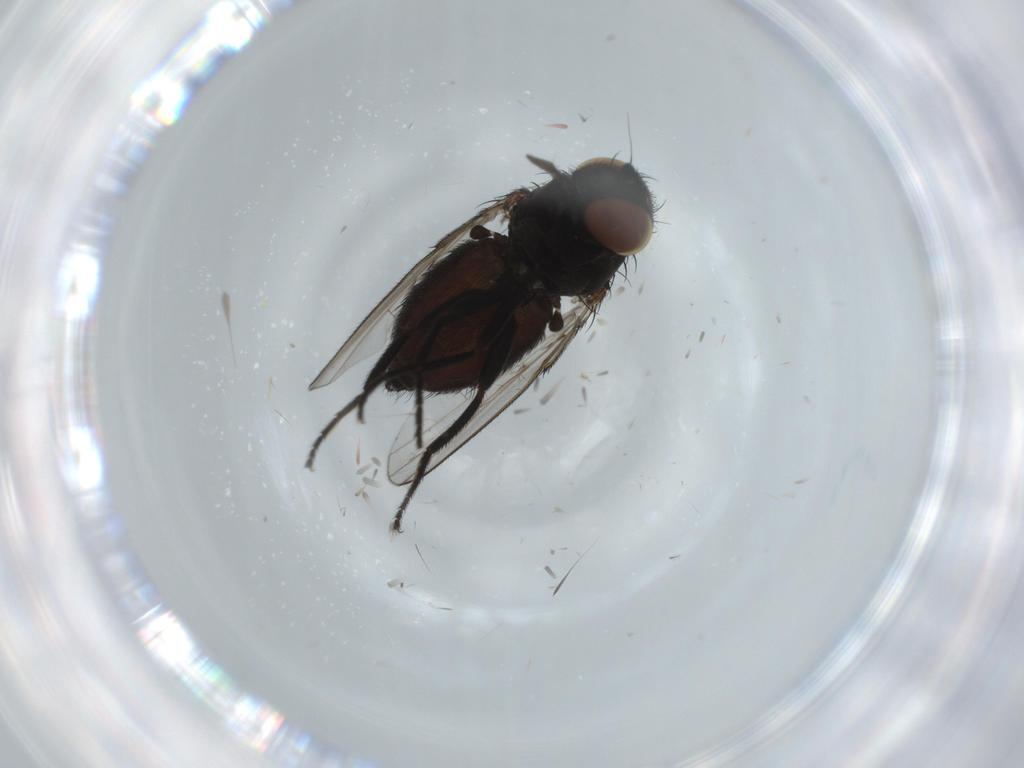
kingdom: Animalia
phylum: Arthropoda
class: Insecta
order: Diptera
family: Milichiidae
